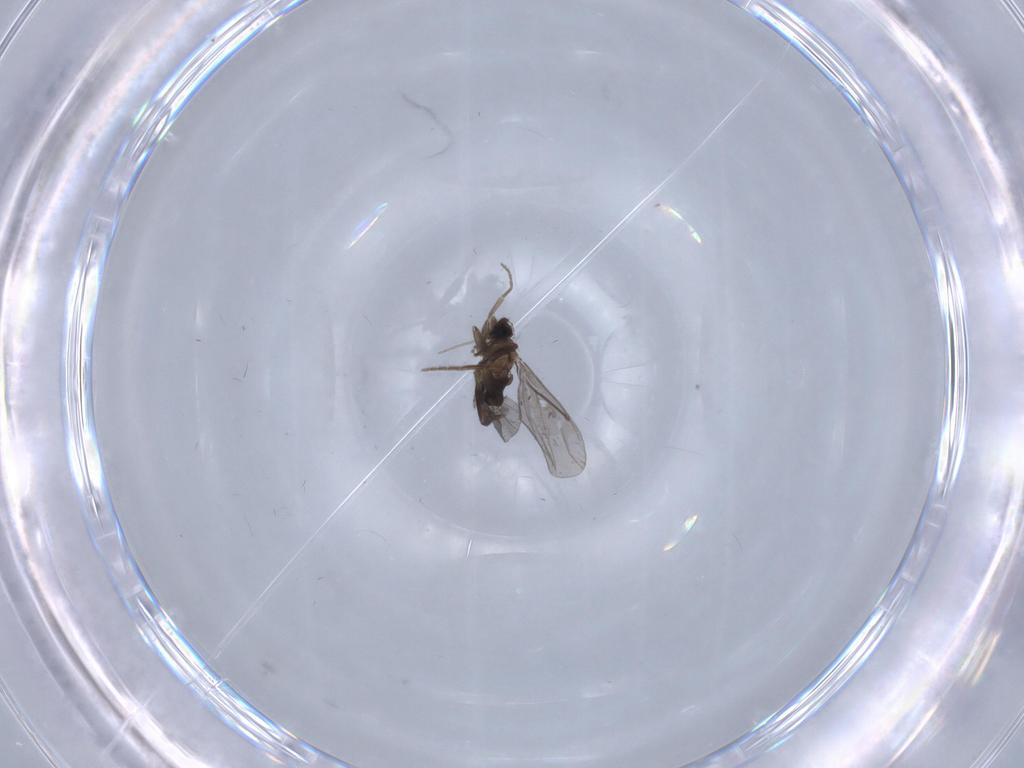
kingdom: Animalia
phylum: Arthropoda
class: Insecta
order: Diptera
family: Chironomidae
